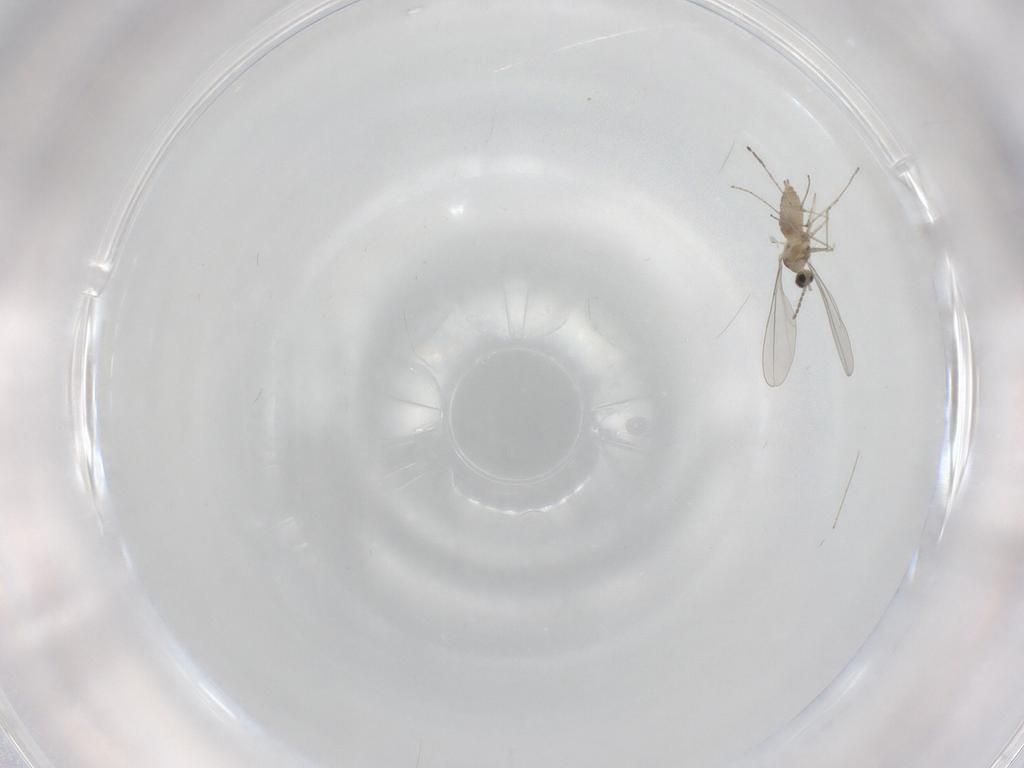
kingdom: Animalia
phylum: Arthropoda
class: Insecta
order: Diptera
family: Cecidomyiidae
